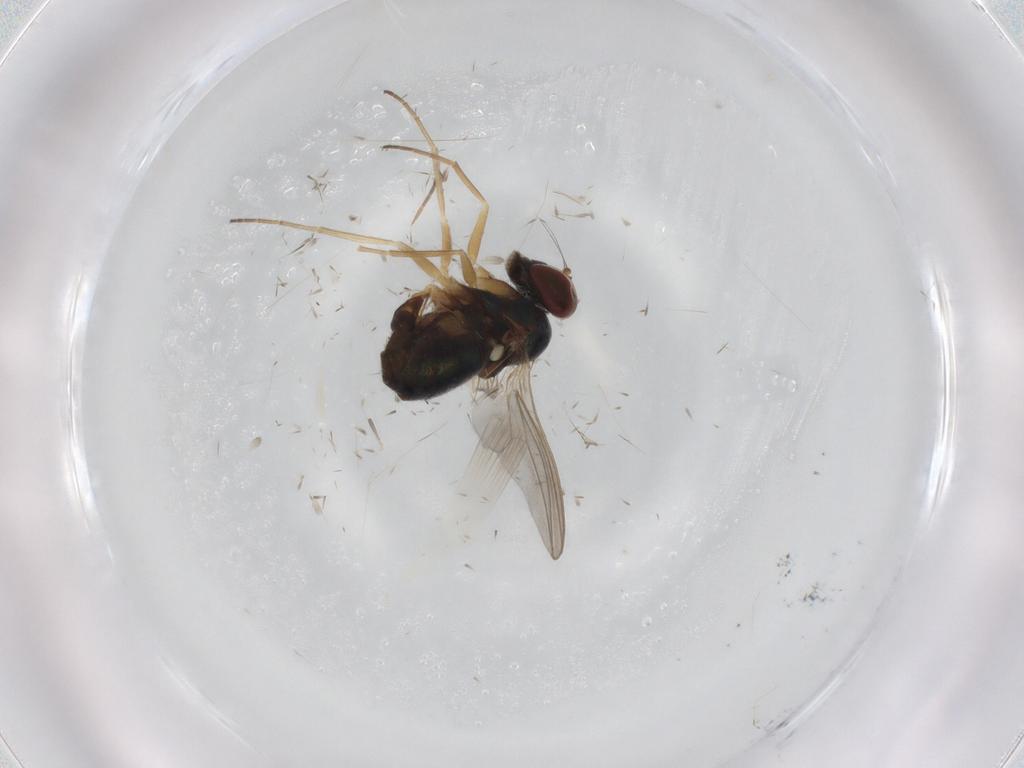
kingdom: Animalia
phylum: Arthropoda
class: Insecta
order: Diptera
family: Dolichopodidae
